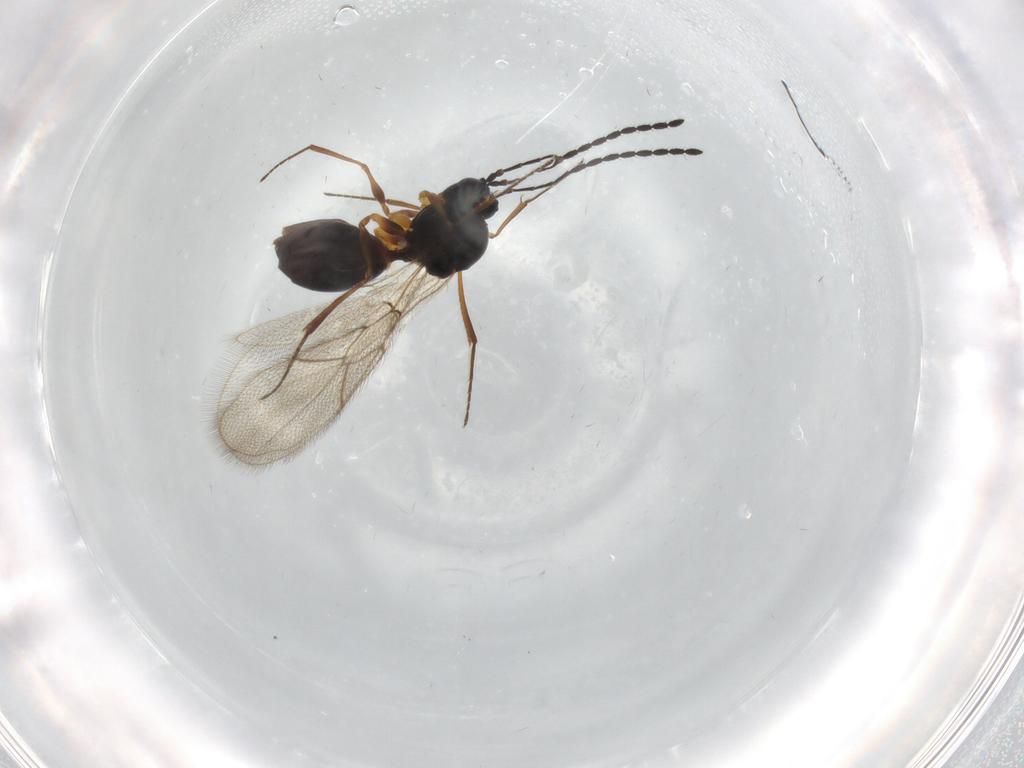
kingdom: Animalia
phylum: Arthropoda
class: Insecta
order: Hymenoptera
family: Figitidae
